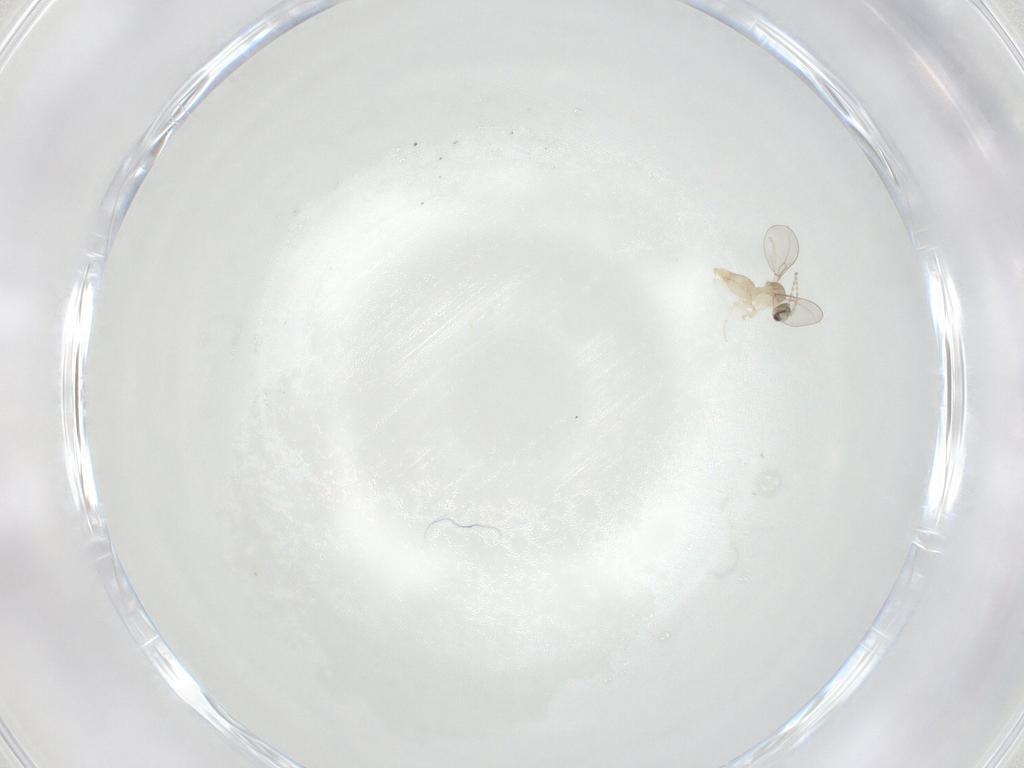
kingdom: Animalia
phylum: Arthropoda
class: Insecta
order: Diptera
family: Cecidomyiidae
